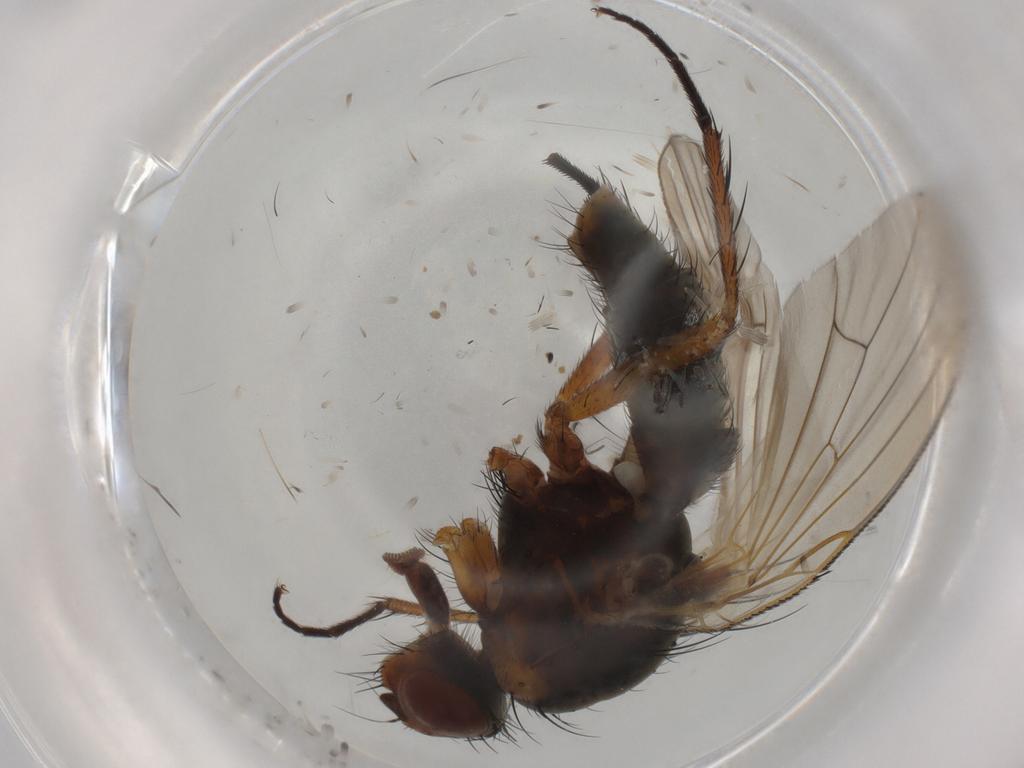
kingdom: Animalia
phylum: Arthropoda
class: Insecta
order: Diptera
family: Anthomyiidae
